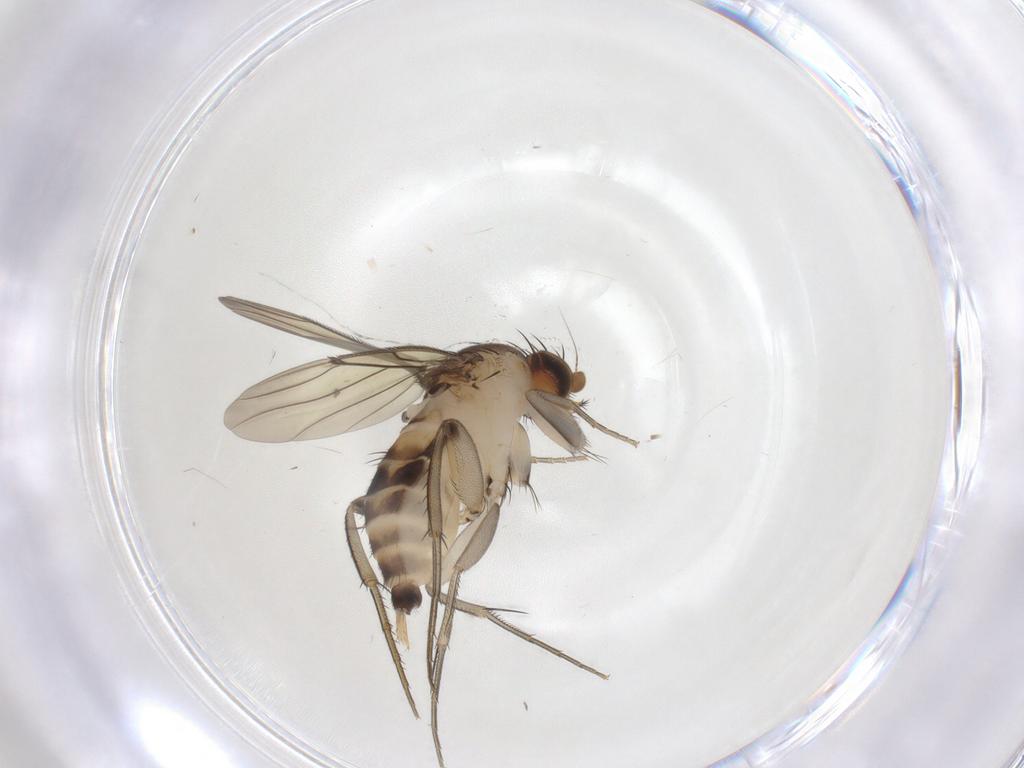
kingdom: Animalia
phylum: Arthropoda
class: Insecta
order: Diptera
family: Phoridae
